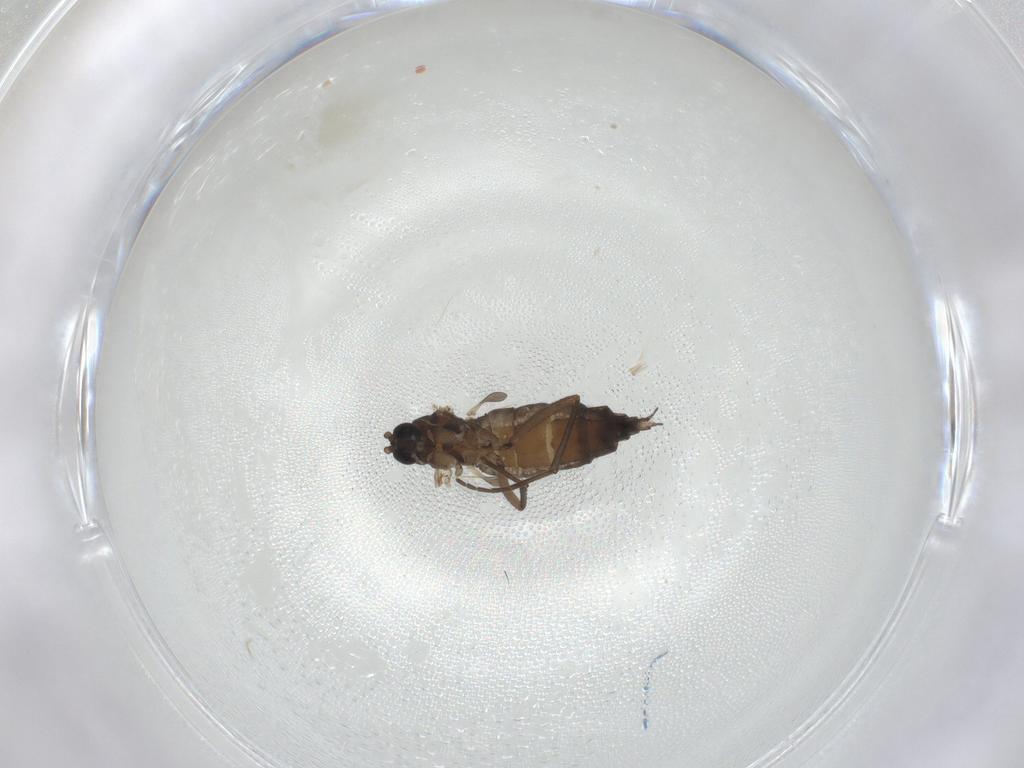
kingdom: Animalia
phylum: Arthropoda
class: Insecta
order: Diptera
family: Sciaridae
